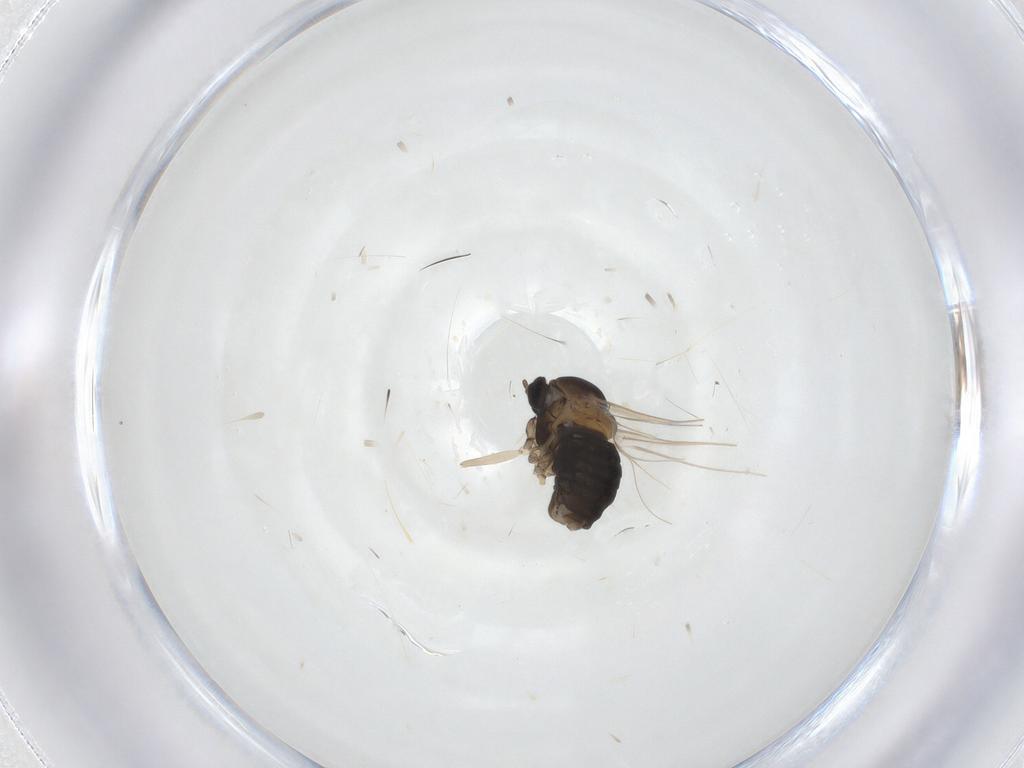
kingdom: Animalia
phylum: Arthropoda
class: Insecta
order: Diptera
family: Cecidomyiidae
